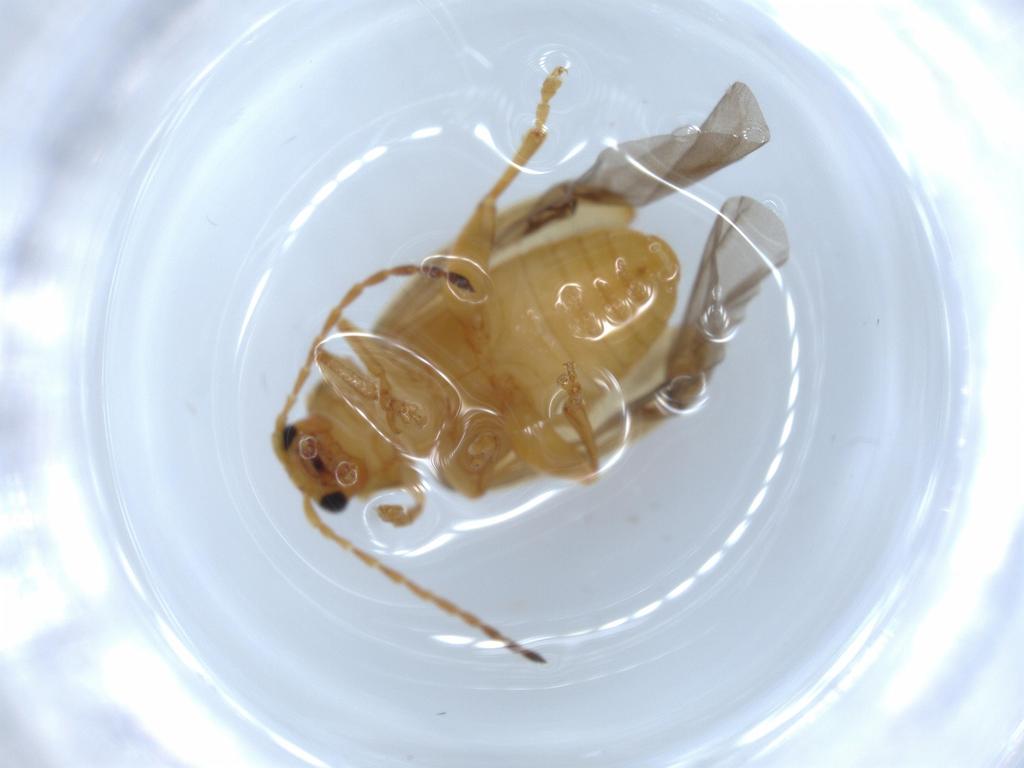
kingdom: Animalia
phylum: Arthropoda
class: Insecta
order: Coleoptera
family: Chrysomelidae
